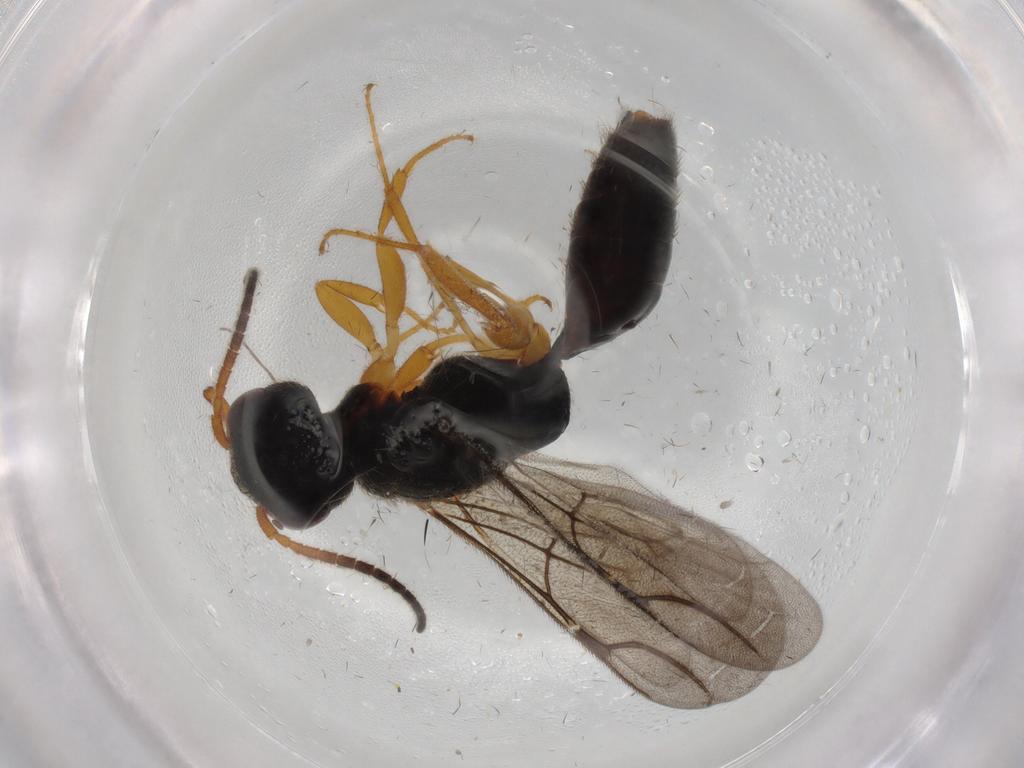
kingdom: Animalia
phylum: Arthropoda
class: Insecta
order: Hymenoptera
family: Bethylidae
